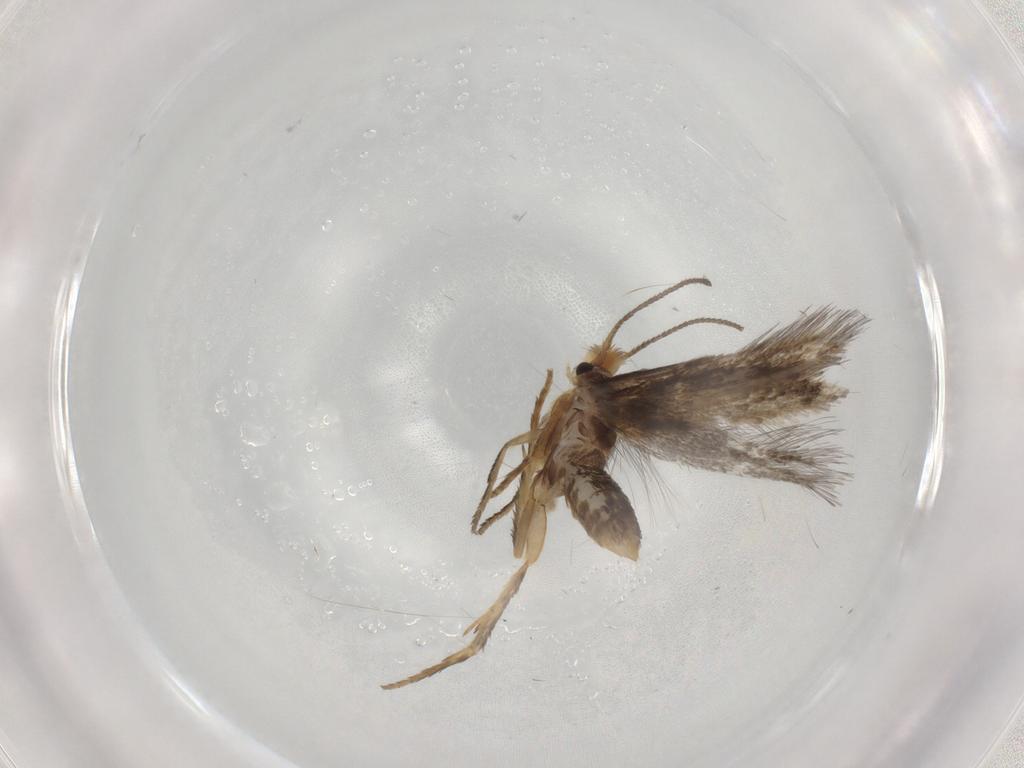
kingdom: Animalia
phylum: Arthropoda
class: Insecta
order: Lepidoptera
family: Nepticulidae
